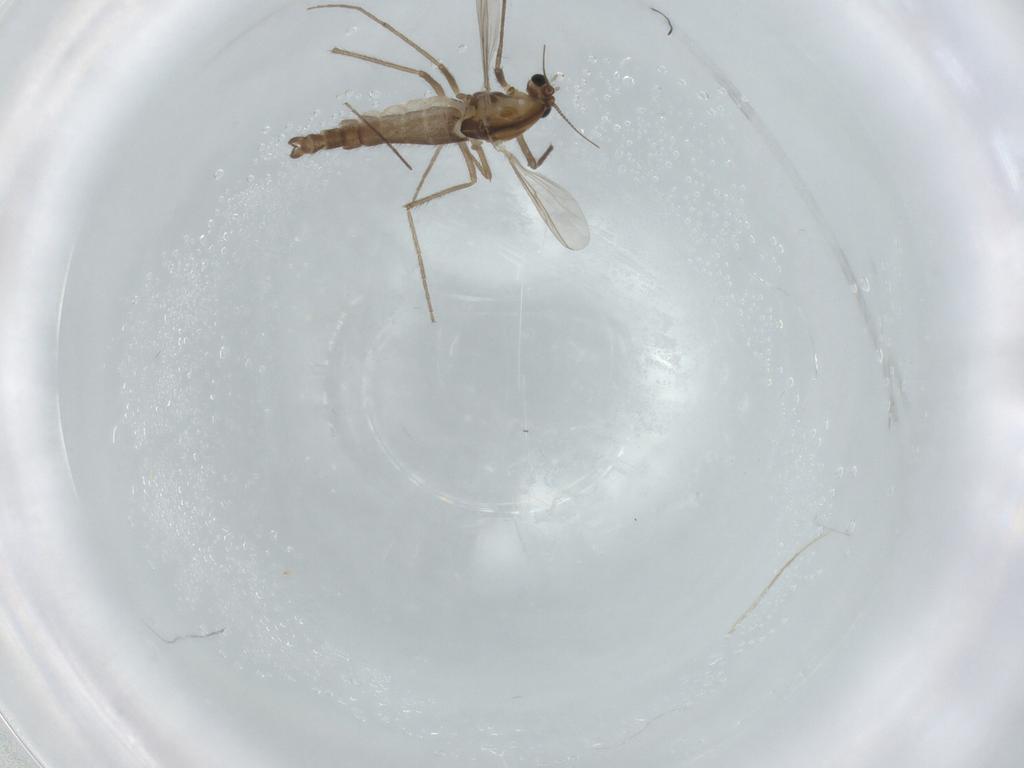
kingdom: Animalia
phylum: Arthropoda
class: Insecta
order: Diptera
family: Chironomidae
